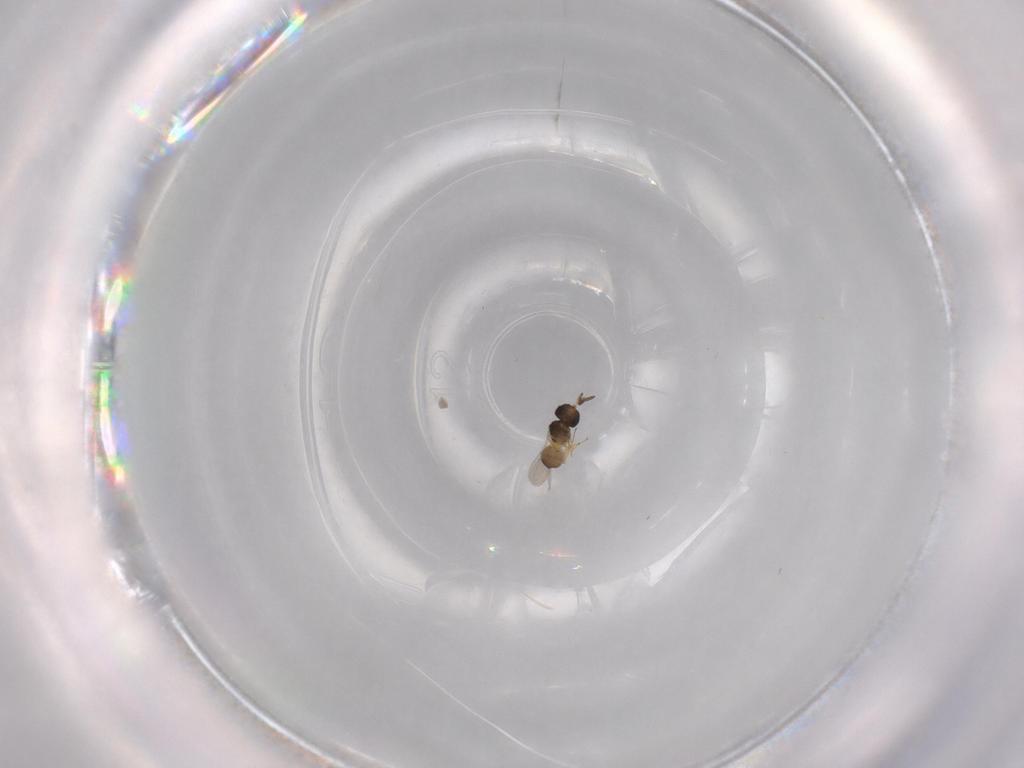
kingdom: Animalia
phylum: Arthropoda
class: Insecta
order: Hymenoptera
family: Scelionidae
